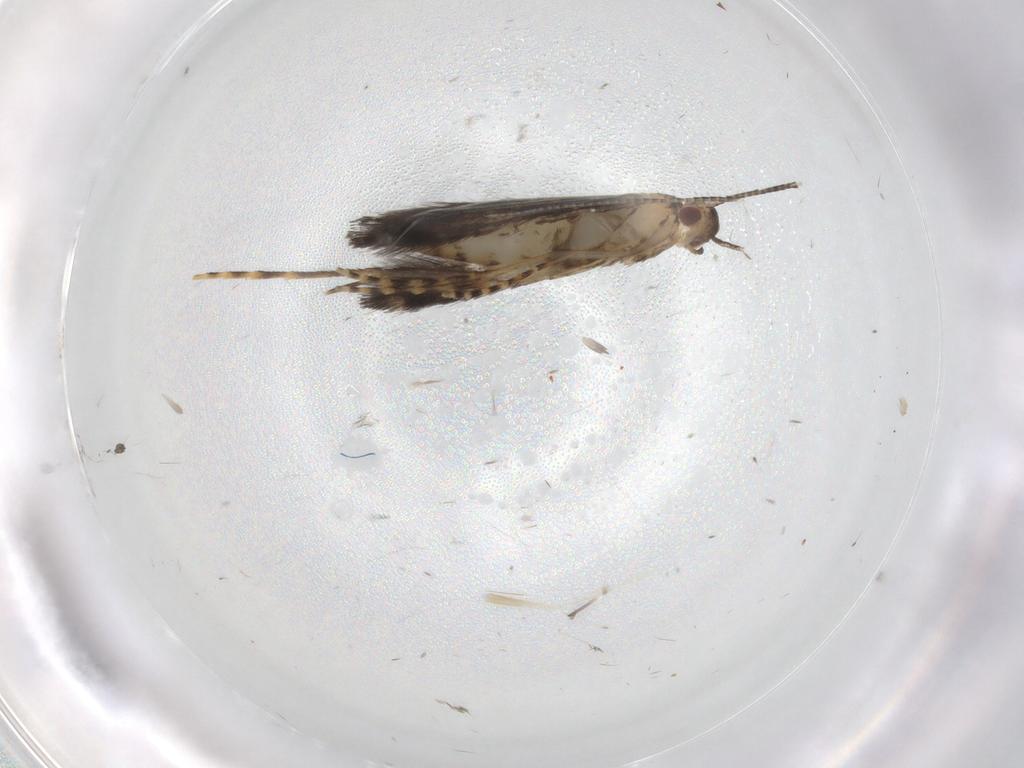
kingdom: Animalia
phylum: Arthropoda
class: Insecta
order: Lepidoptera
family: Gracillariidae
